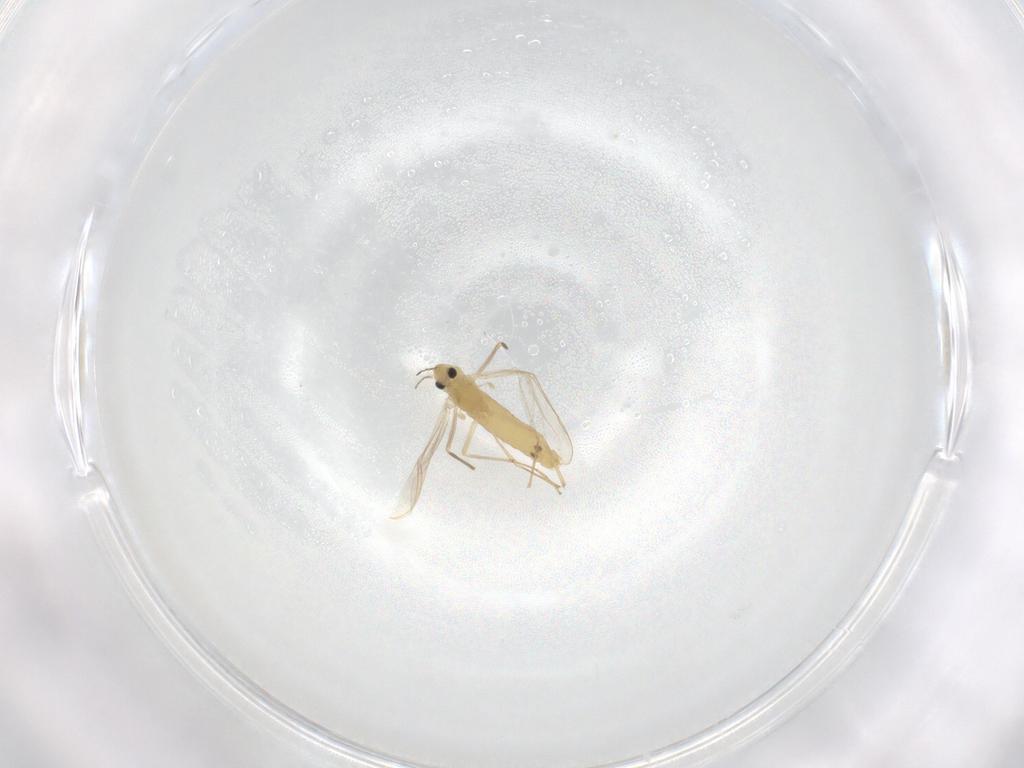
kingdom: Animalia
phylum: Arthropoda
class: Insecta
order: Diptera
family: Chironomidae
